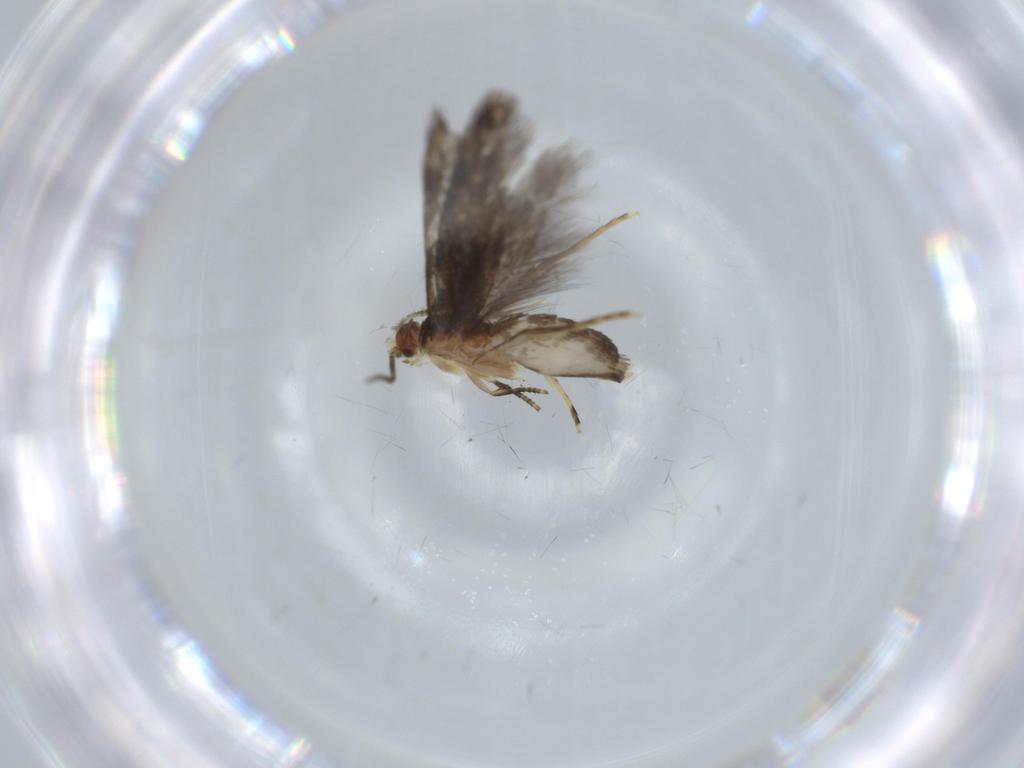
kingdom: Animalia
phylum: Arthropoda
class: Insecta
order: Lepidoptera
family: Tineidae
